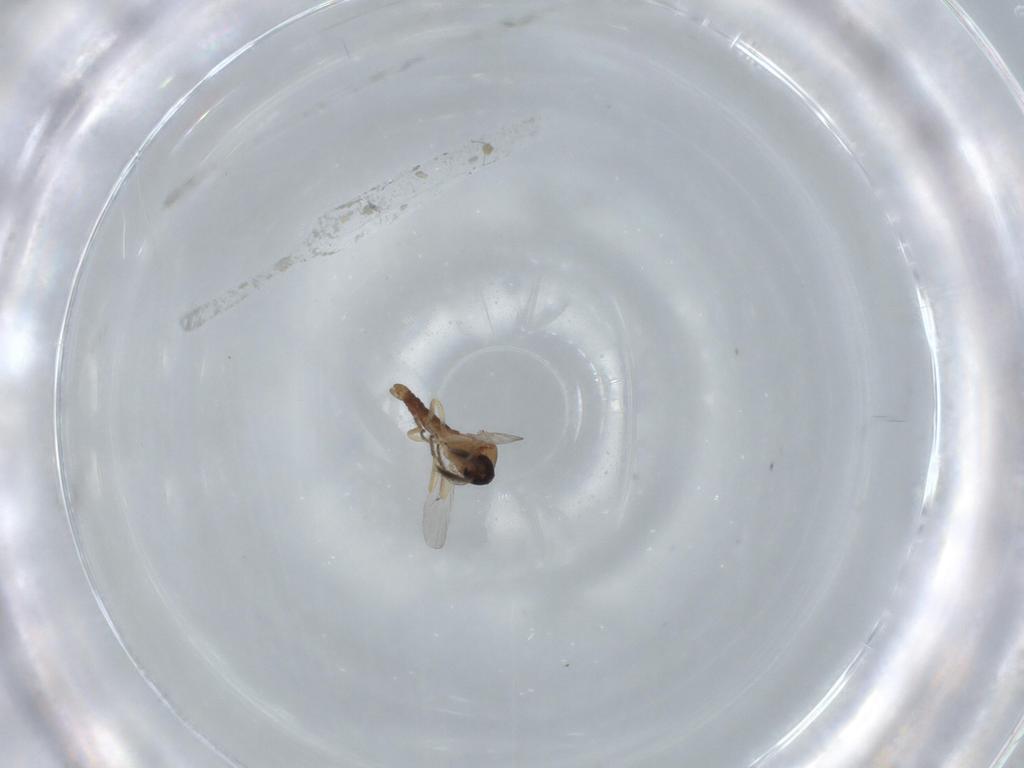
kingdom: Animalia
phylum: Arthropoda
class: Insecta
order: Diptera
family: Ceratopogonidae
